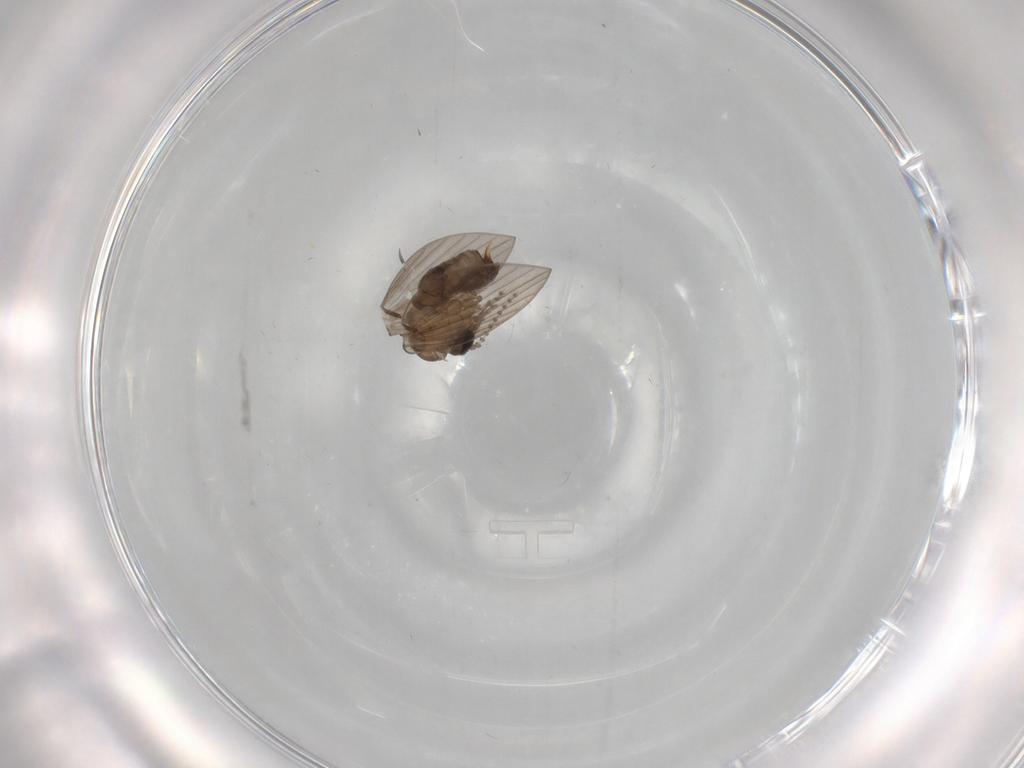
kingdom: Animalia
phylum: Arthropoda
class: Insecta
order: Diptera
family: Psychodidae
